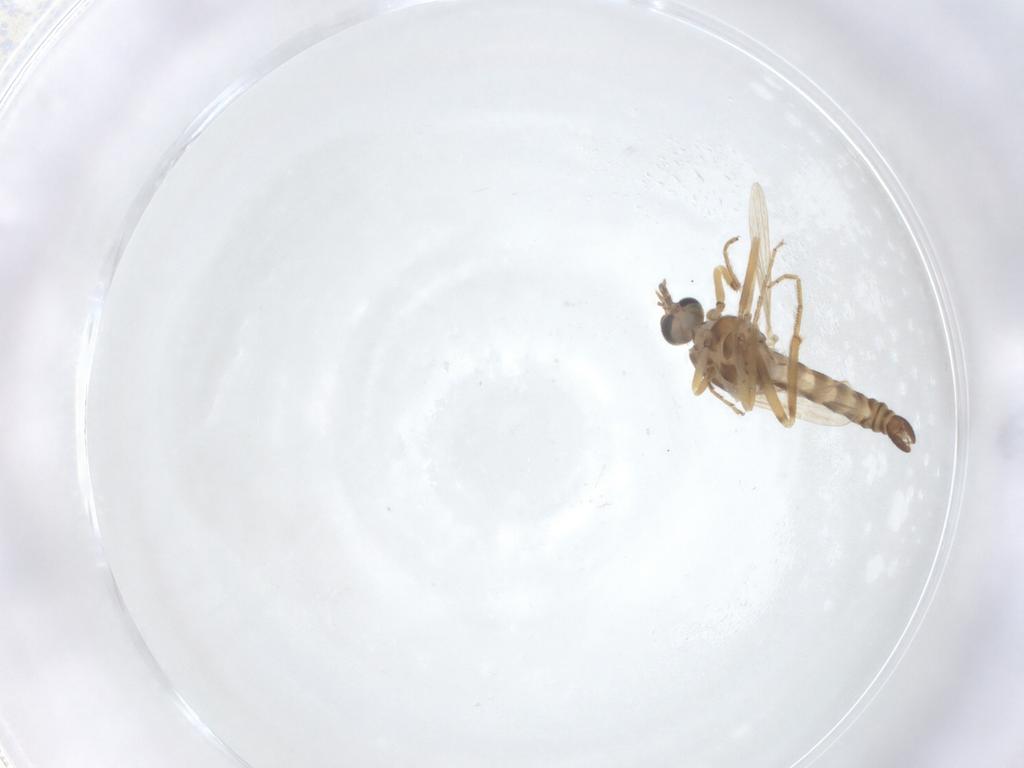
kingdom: Animalia
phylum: Arthropoda
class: Insecta
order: Diptera
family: Ceratopogonidae
